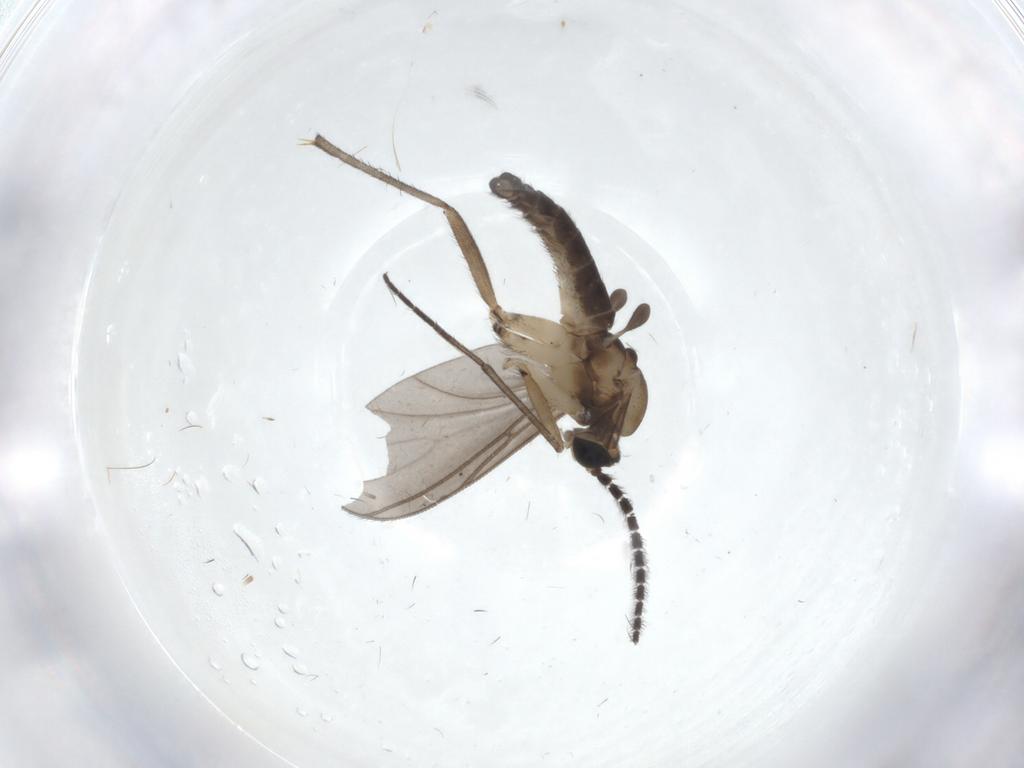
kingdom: Animalia
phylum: Arthropoda
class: Insecta
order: Diptera
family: Sciaridae
